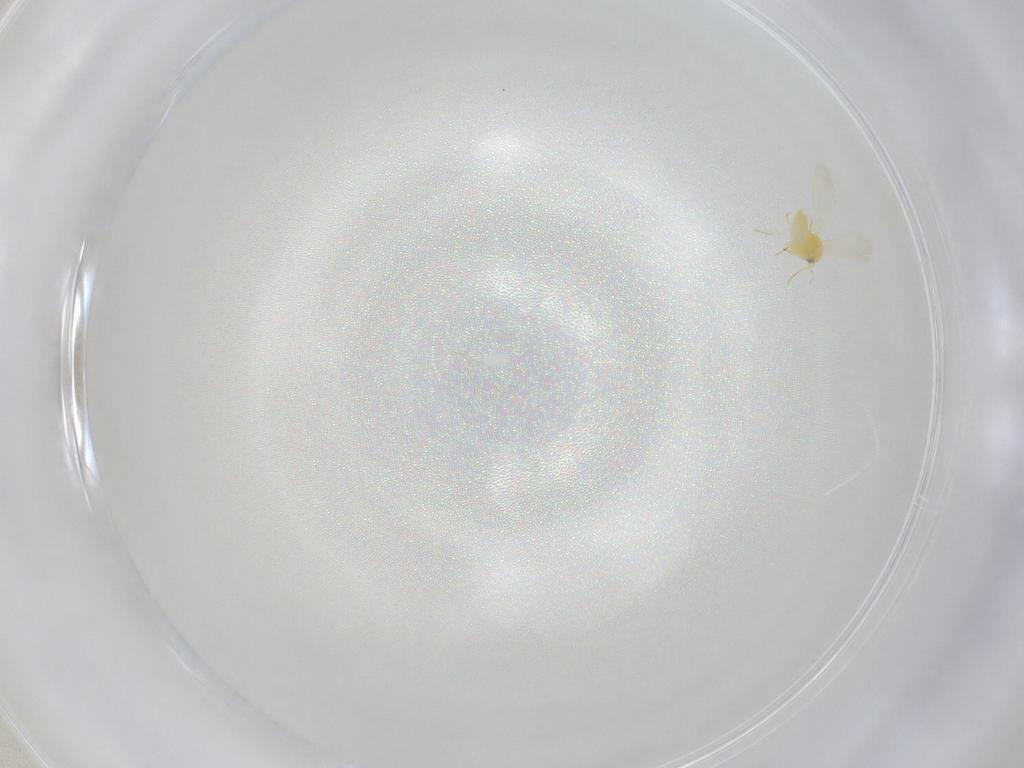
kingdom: Animalia
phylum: Arthropoda
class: Insecta
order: Hemiptera
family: Aleyrodidae
